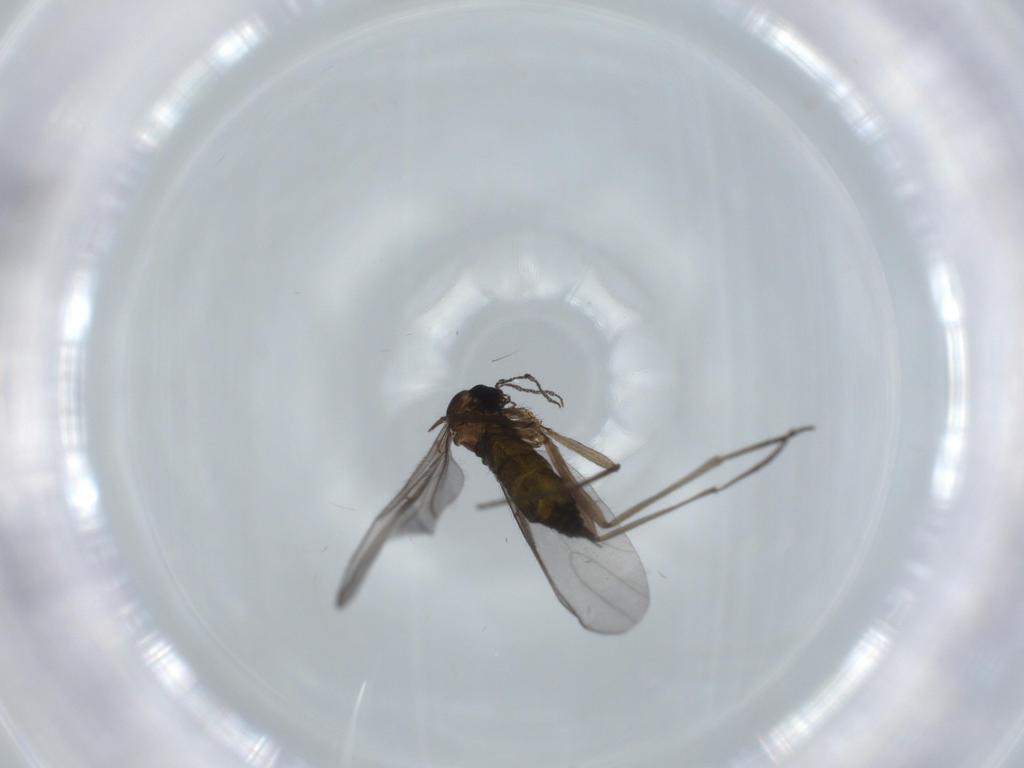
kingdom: Animalia
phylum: Arthropoda
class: Insecta
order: Diptera
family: Sciaridae
